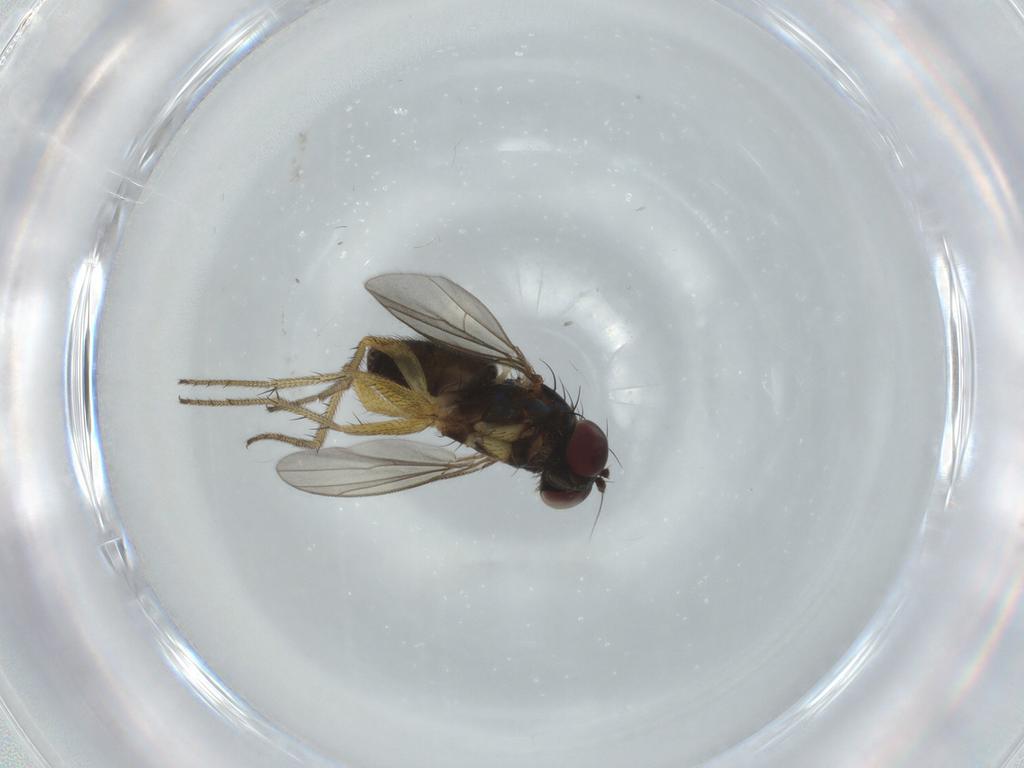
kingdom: Animalia
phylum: Arthropoda
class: Insecta
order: Diptera
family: Dolichopodidae
